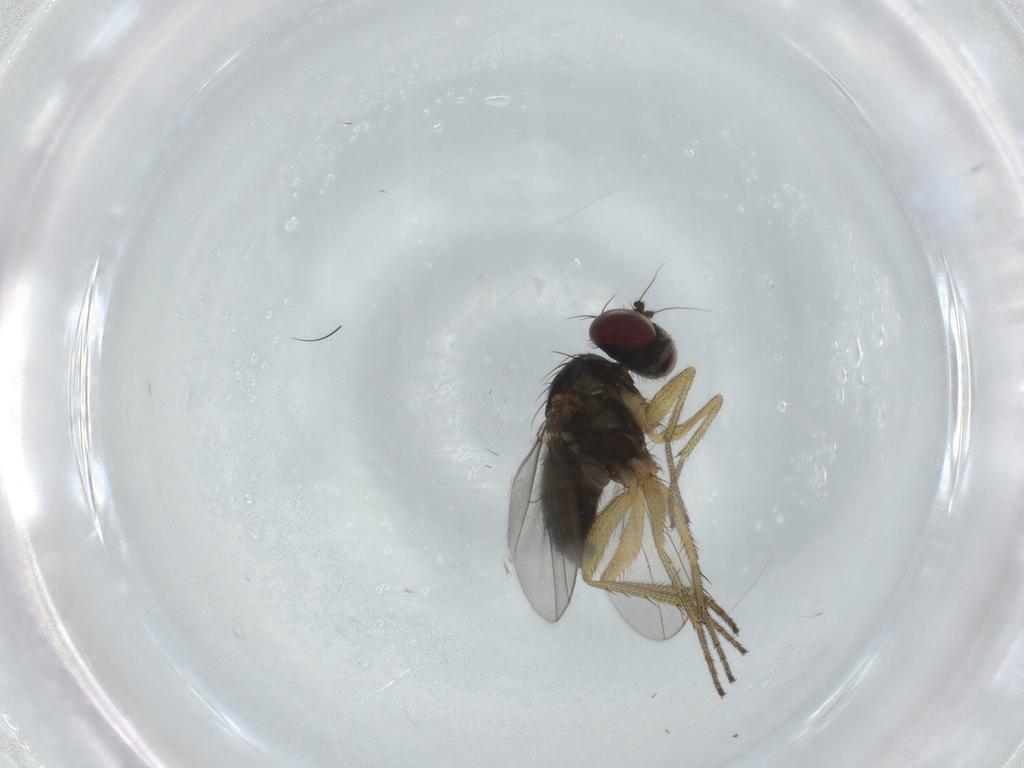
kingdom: Animalia
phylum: Arthropoda
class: Insecta
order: Diptera
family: Dolichopodidae
